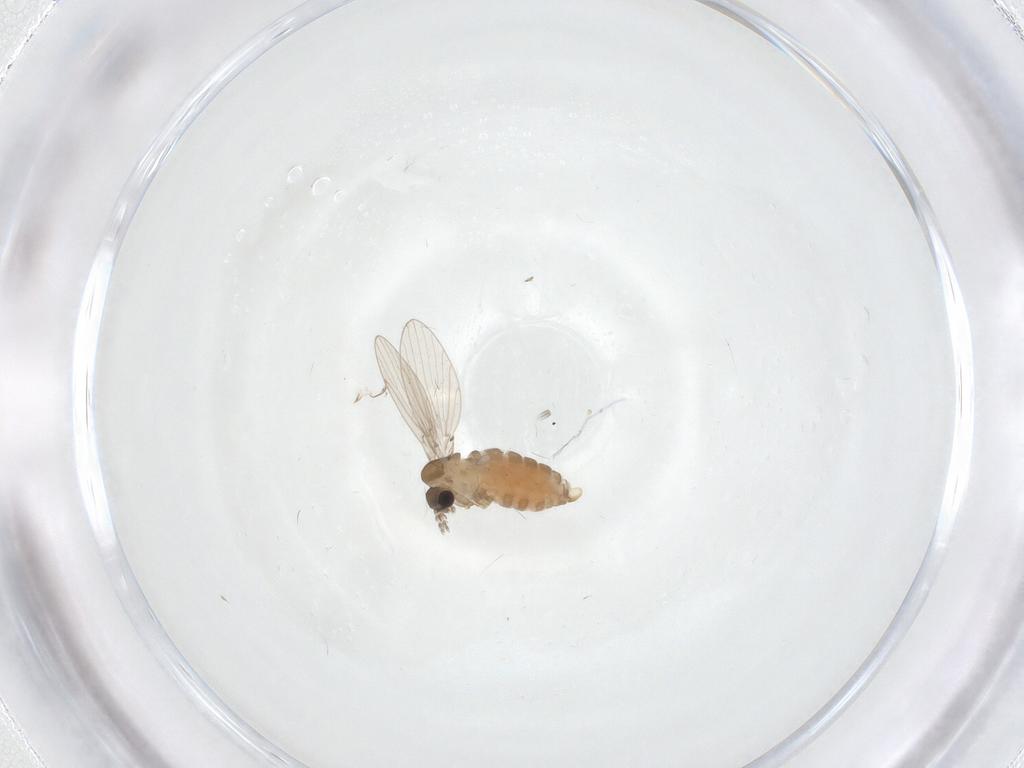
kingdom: Animalia
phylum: Arthropoda
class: Insecta
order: Diptera
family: Psychodidae
